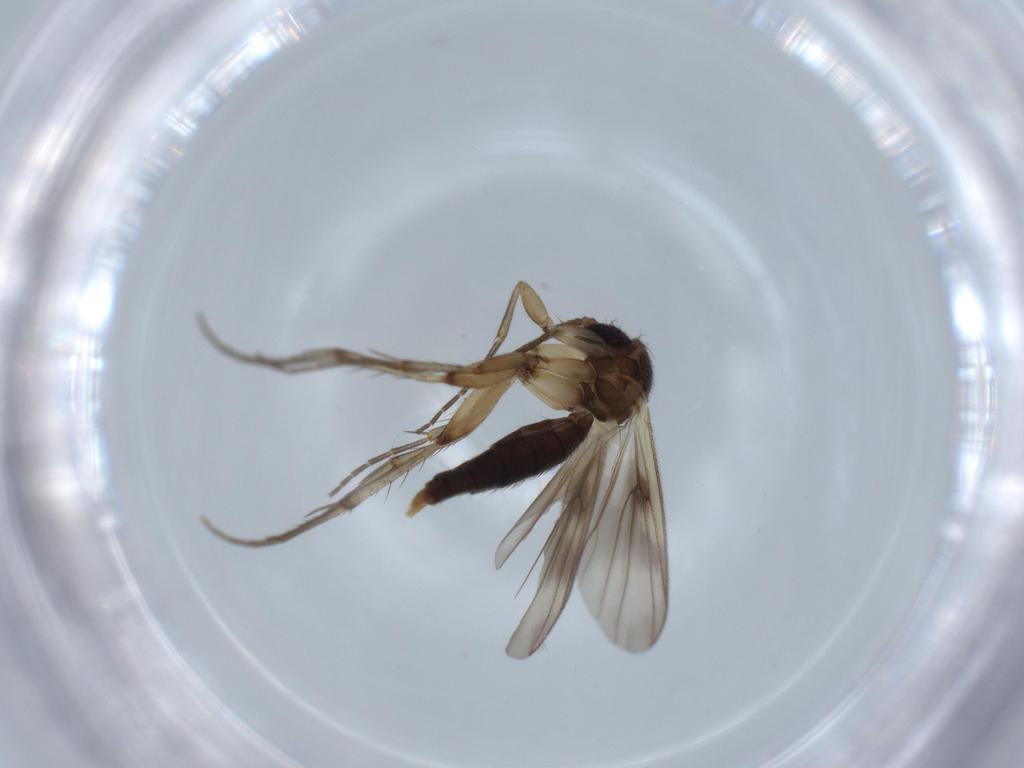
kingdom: Animalia
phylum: Arthropoda
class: Insecta
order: Diptera
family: Mycetophilidae
